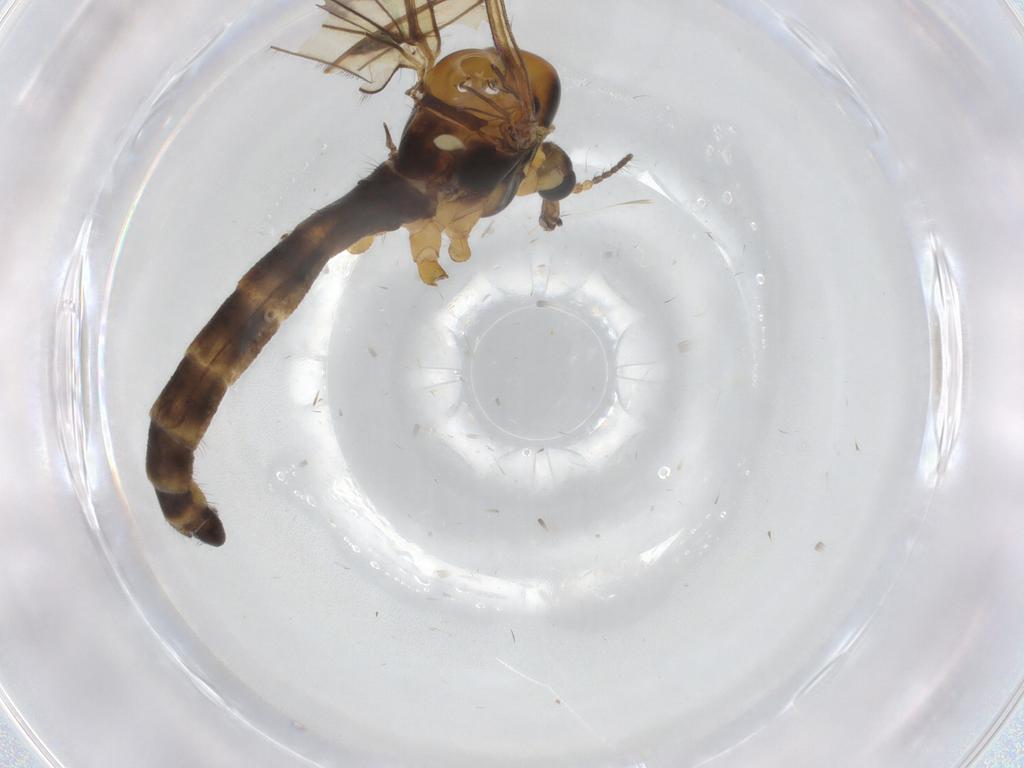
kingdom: Animalia
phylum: Arthropoda
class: Insecta
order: Diptera
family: Limoniidae
